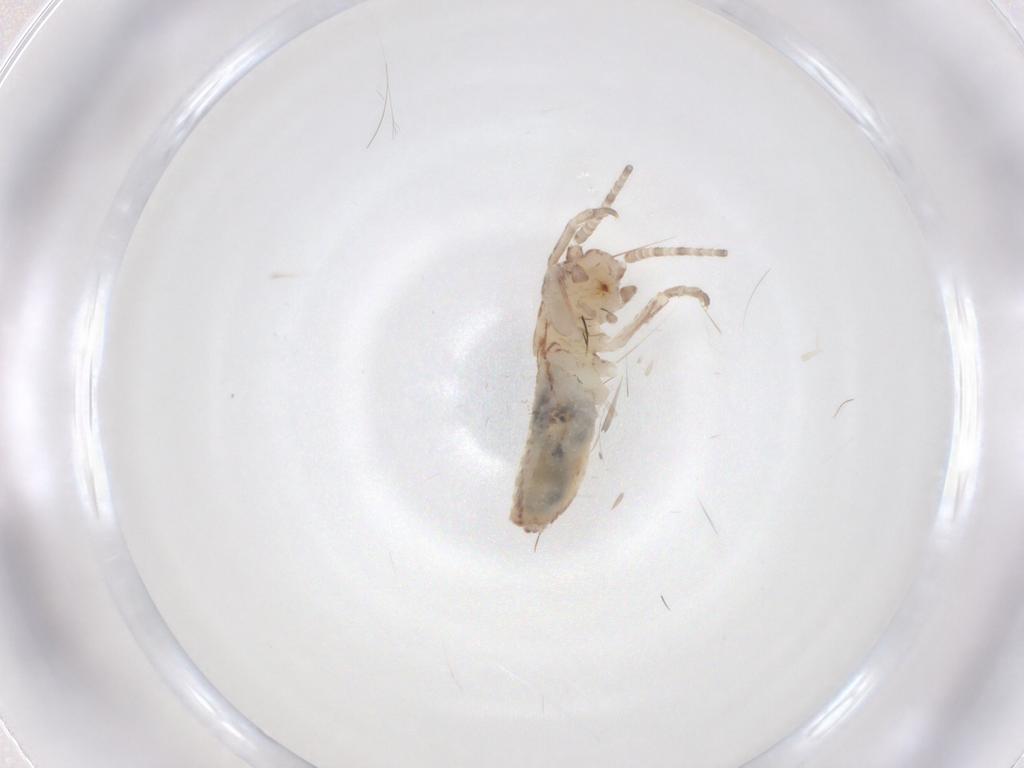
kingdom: Animalia
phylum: Arthropoda
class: Insecta
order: Orthoptera
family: Mogoplistidae
